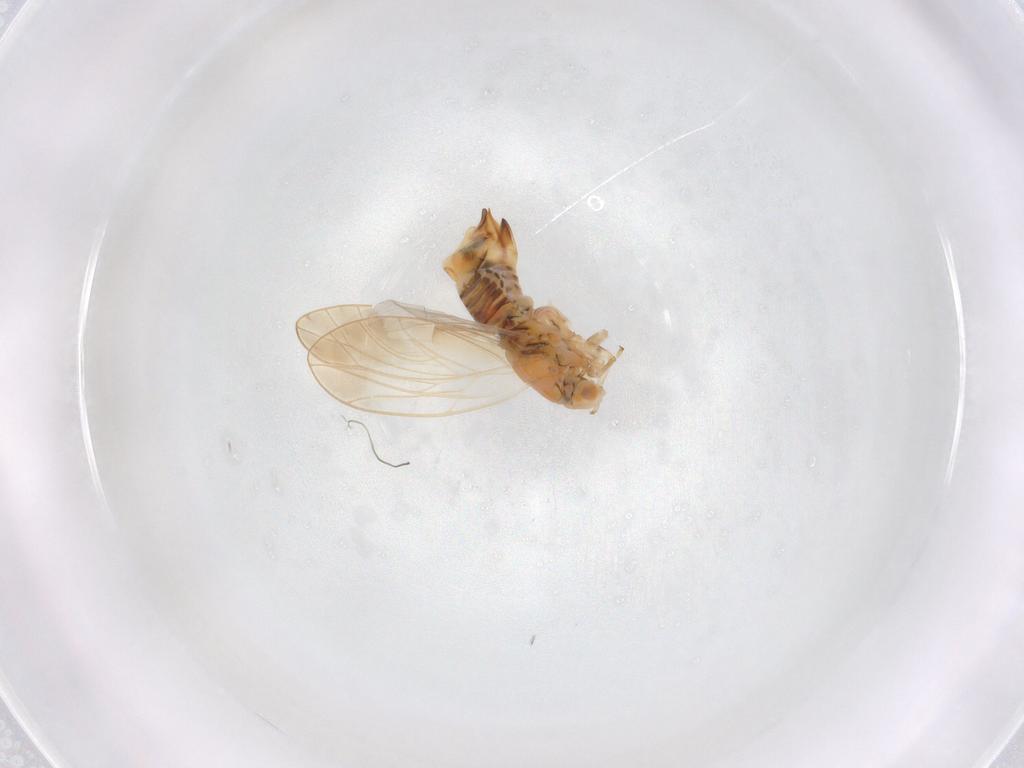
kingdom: Animalia
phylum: Arthropoda
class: Insecta
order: Hemiptera
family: Triozidae
